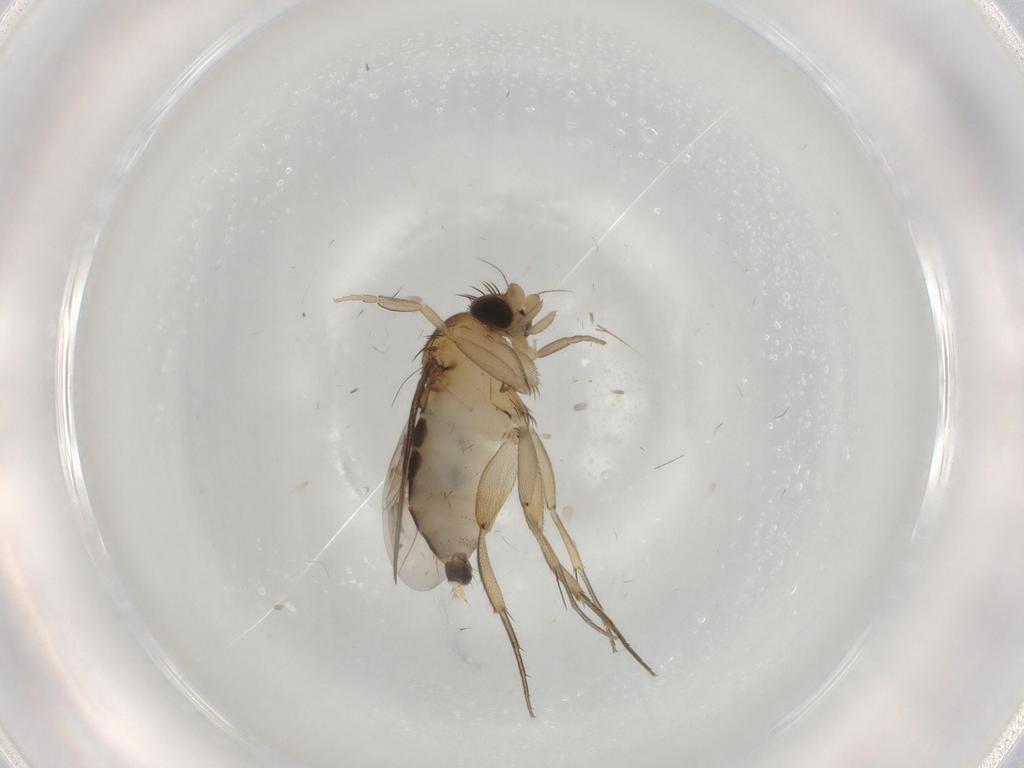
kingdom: Animalia
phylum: Arthropoda
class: Insecta
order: Diptera
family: Phoridae
